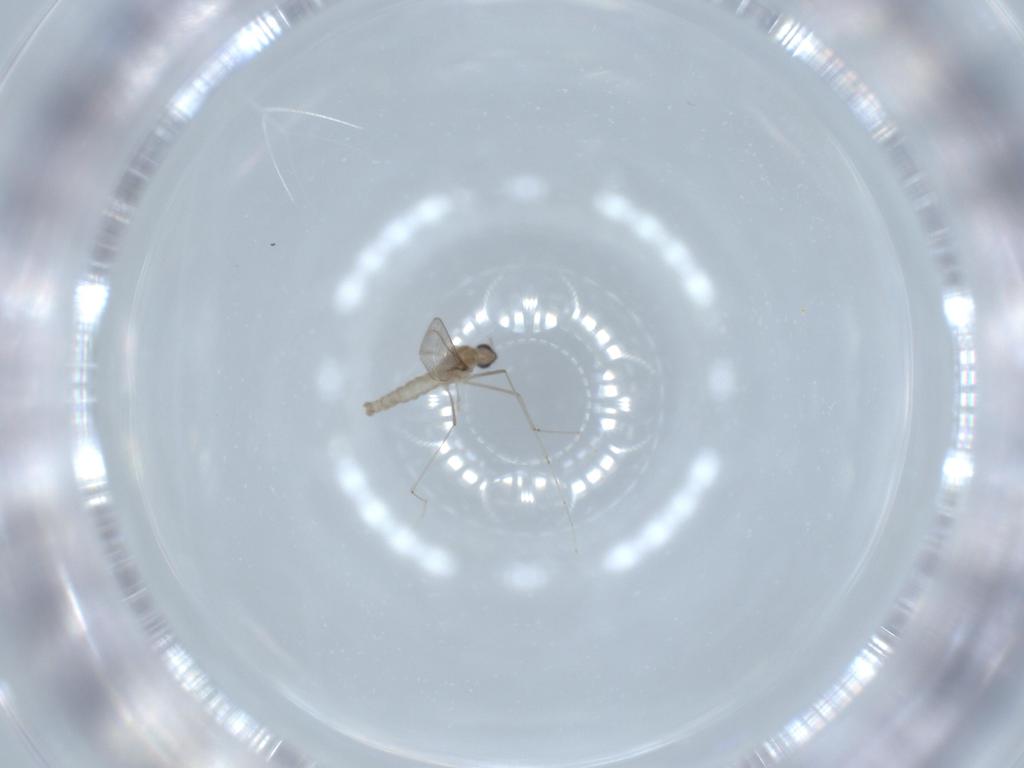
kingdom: Animalia
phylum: Arthropoda
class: Insecta
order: Diptera
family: Cecidomyiidae
